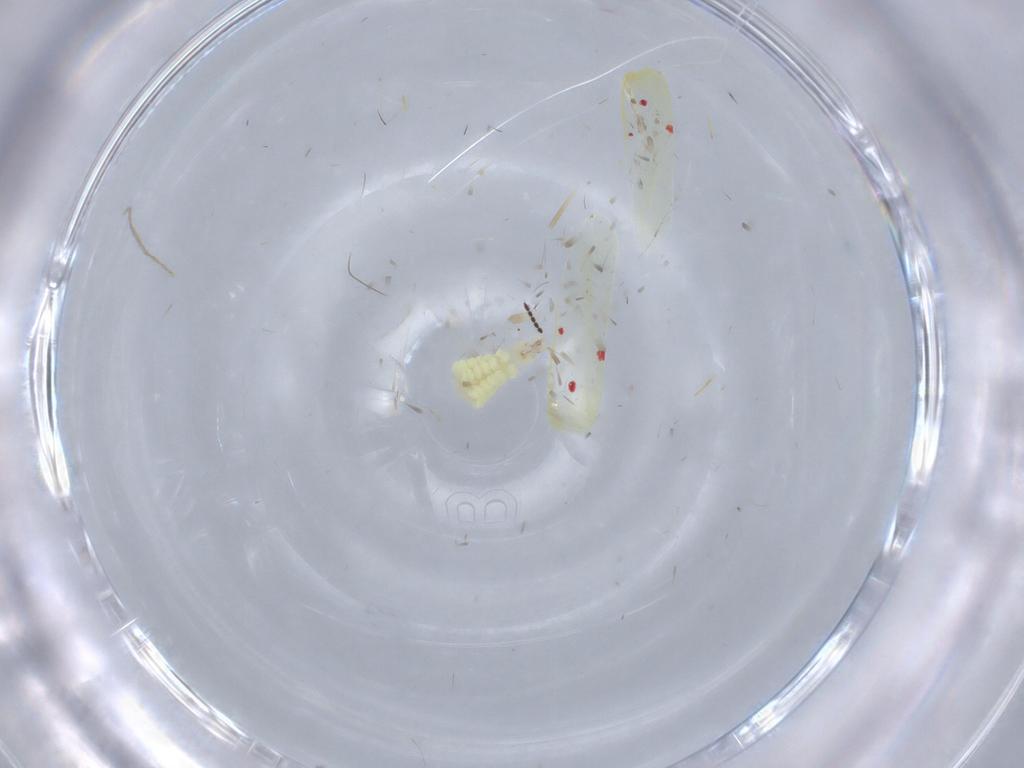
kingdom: Animalia
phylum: Arthropoda
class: Insecta
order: Hemiptera
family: Cicadellidae
